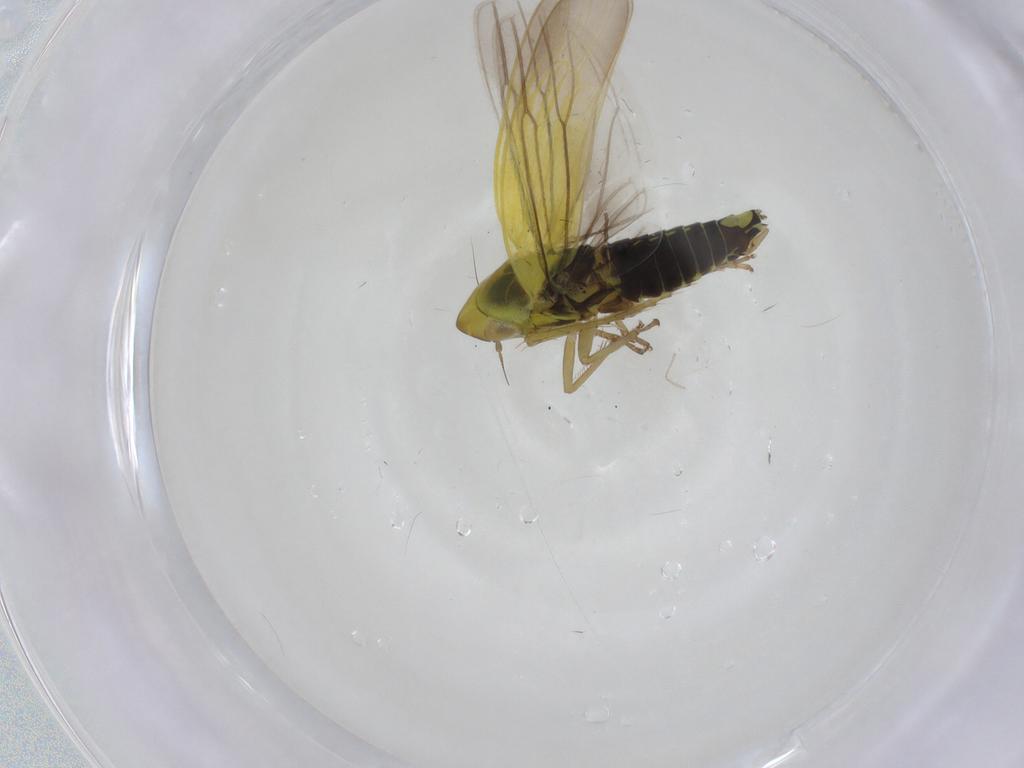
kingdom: Animalia
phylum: Arthropoda
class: Insecta
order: Hemiptera
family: Cicadellidae
